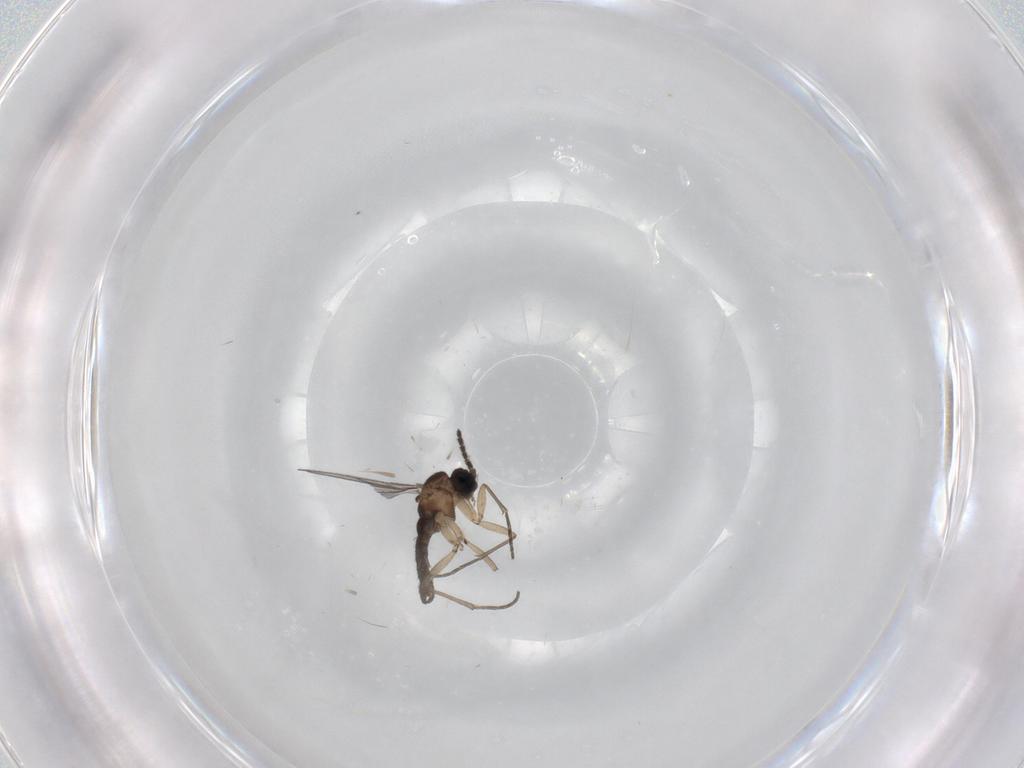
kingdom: Animalia
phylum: Arthropoda
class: Insecta
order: Diptera
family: Sciaridae
